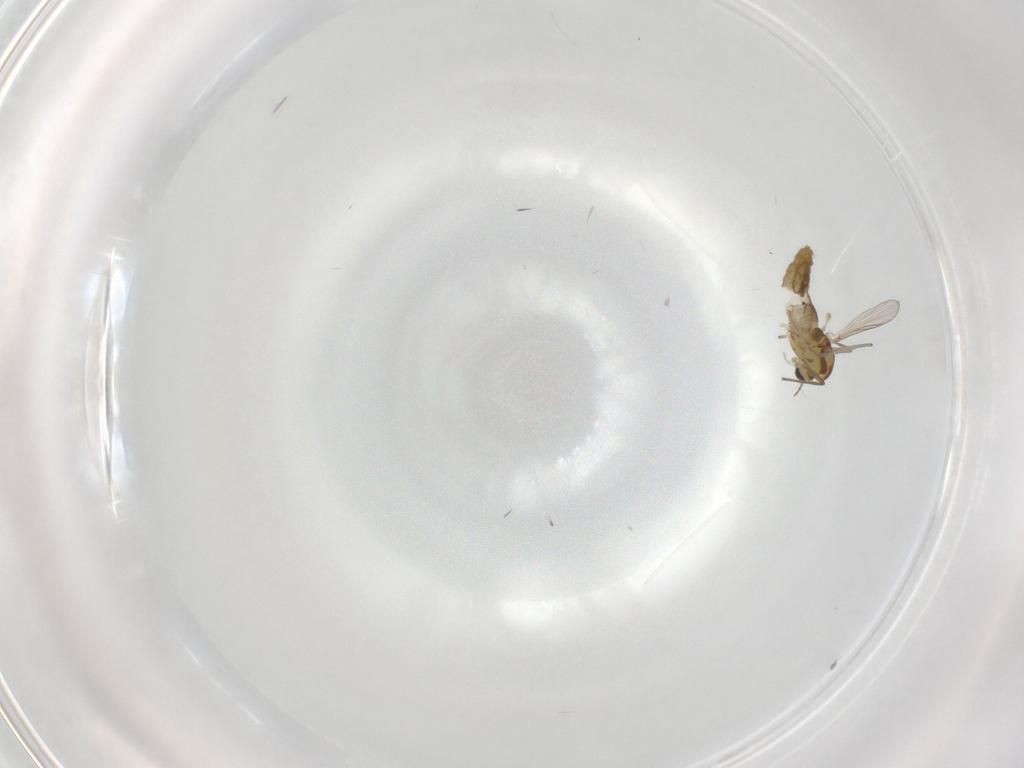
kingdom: Animalia
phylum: Arthropoda
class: Insecta
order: Diptera
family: Chironomidae
